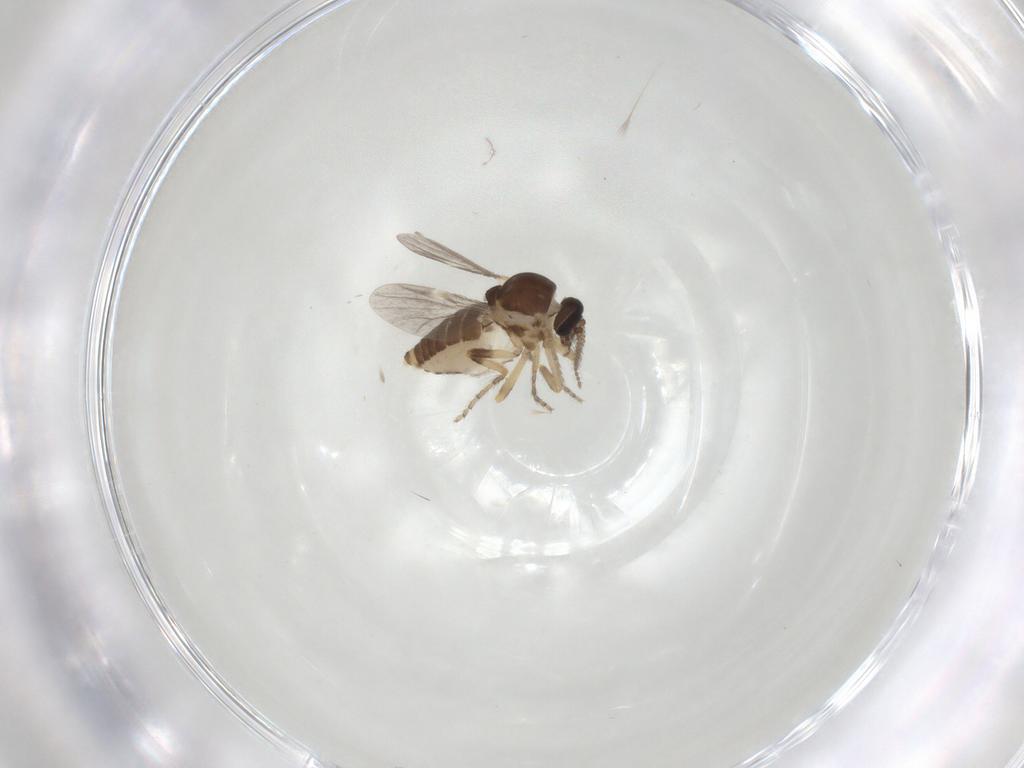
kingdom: Animalia
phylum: Arthropoda
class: Insecta
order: Diptera
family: Ceratopogonidae
